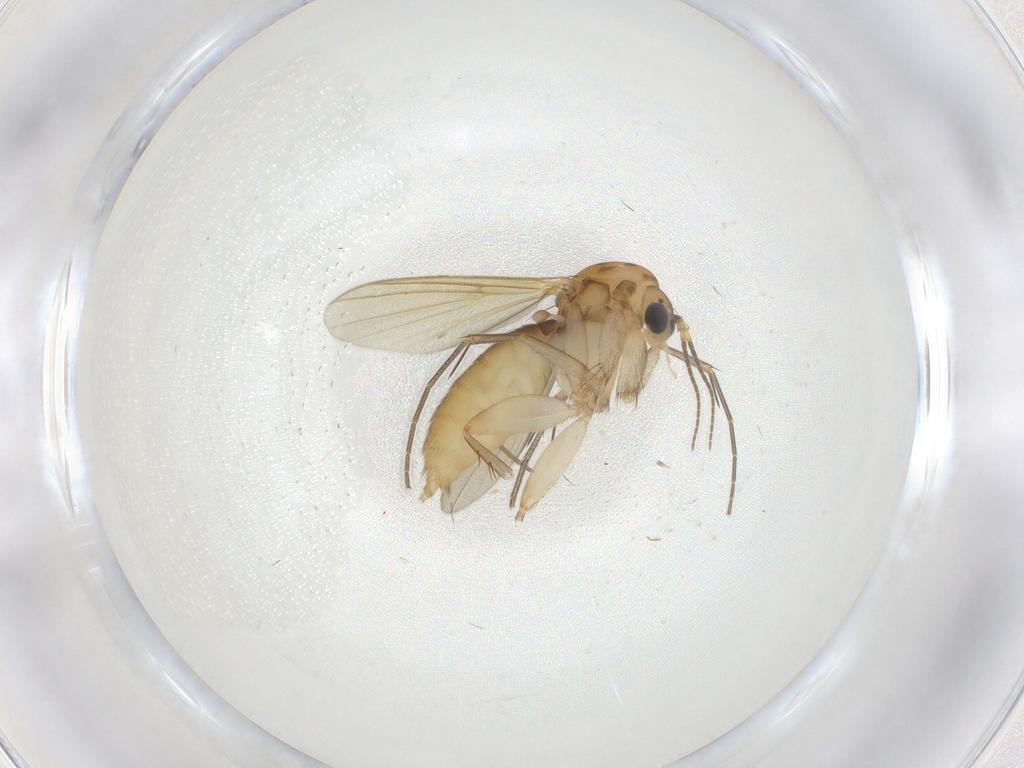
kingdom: Animalia
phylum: Arthropoda
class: Insecta
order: Diptera
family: Mycetophilidae
